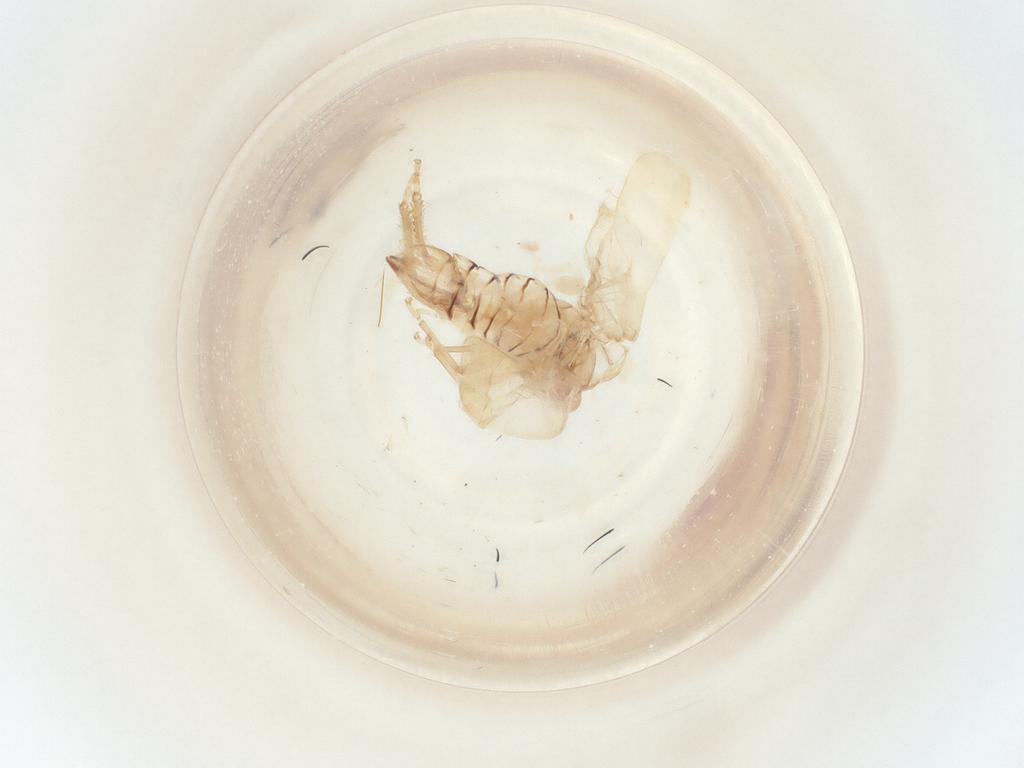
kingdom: Animalia
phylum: Arthropoda
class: Insecta
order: Diptera
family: Chironomidae
